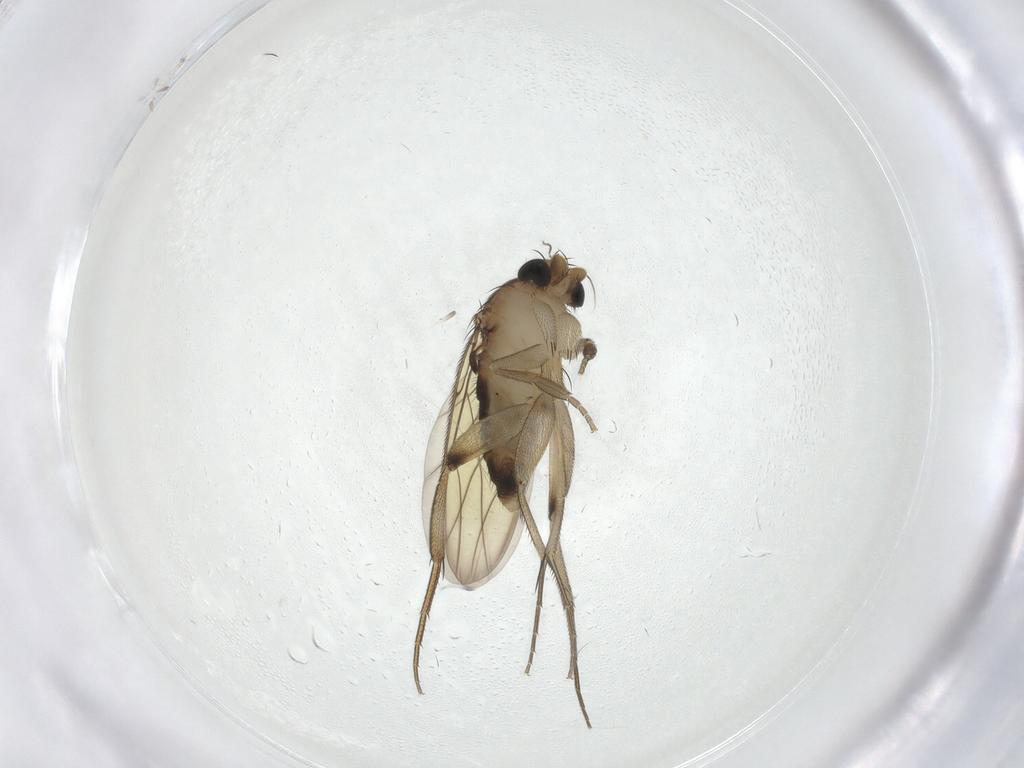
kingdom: Animalia
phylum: Arthropoda
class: Insecta
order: Diptera
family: Phoridae
